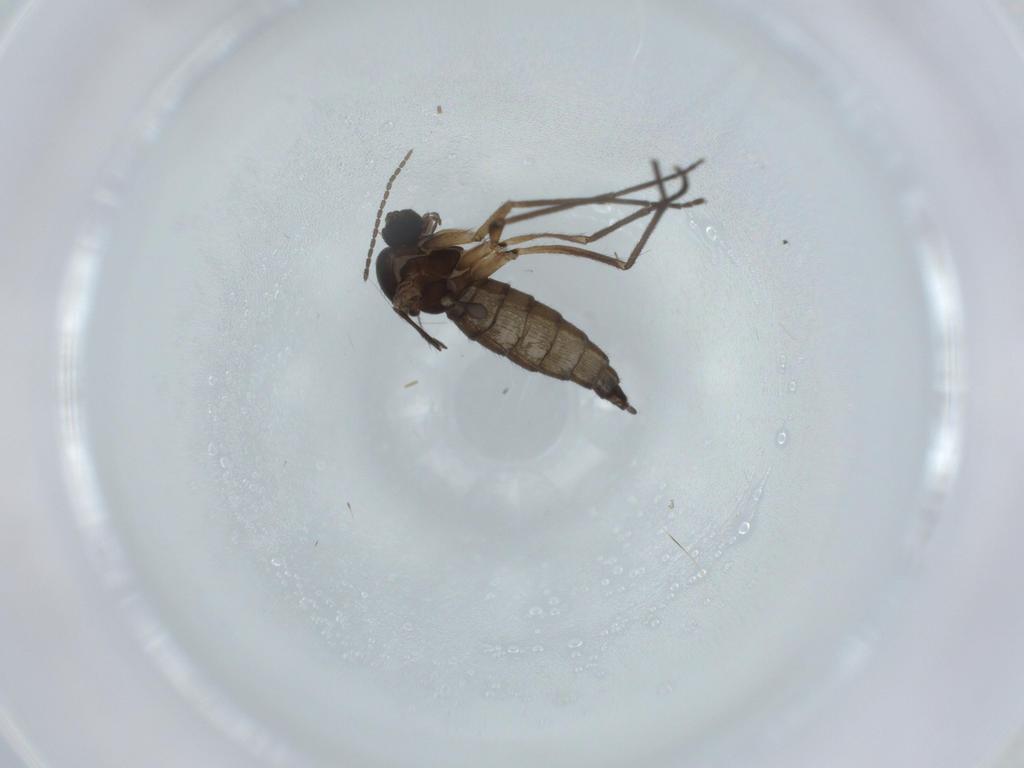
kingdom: Animalia
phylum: Arthropoda
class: Insecta
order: Diptera
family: Sciaridae
